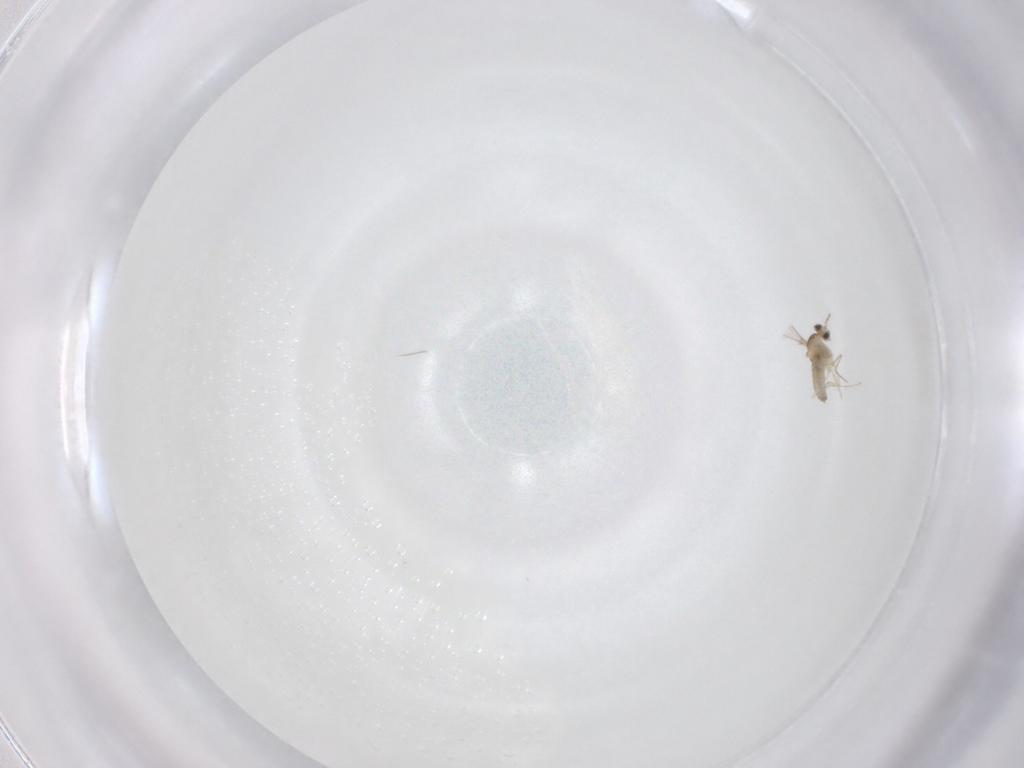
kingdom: Animalia
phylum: Arthropoda
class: Insecta
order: Diptera
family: Cecidomyiidae
